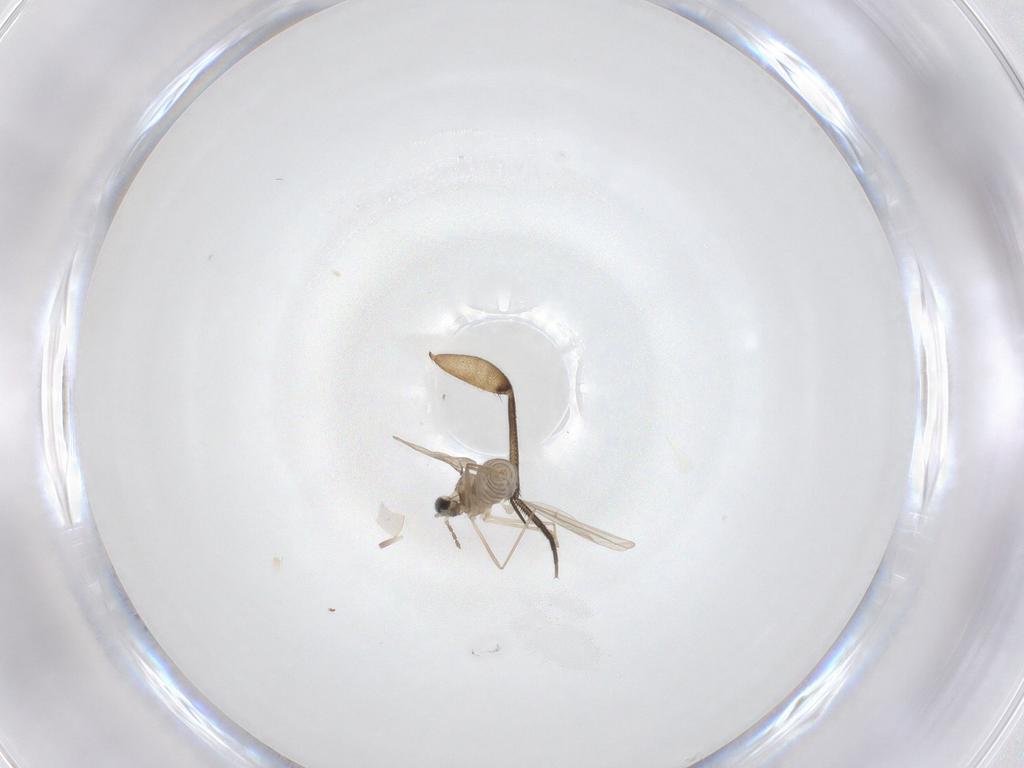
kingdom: Animalia
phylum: Arthropoda
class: Insecta
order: Diptera
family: Mycetophilidae
